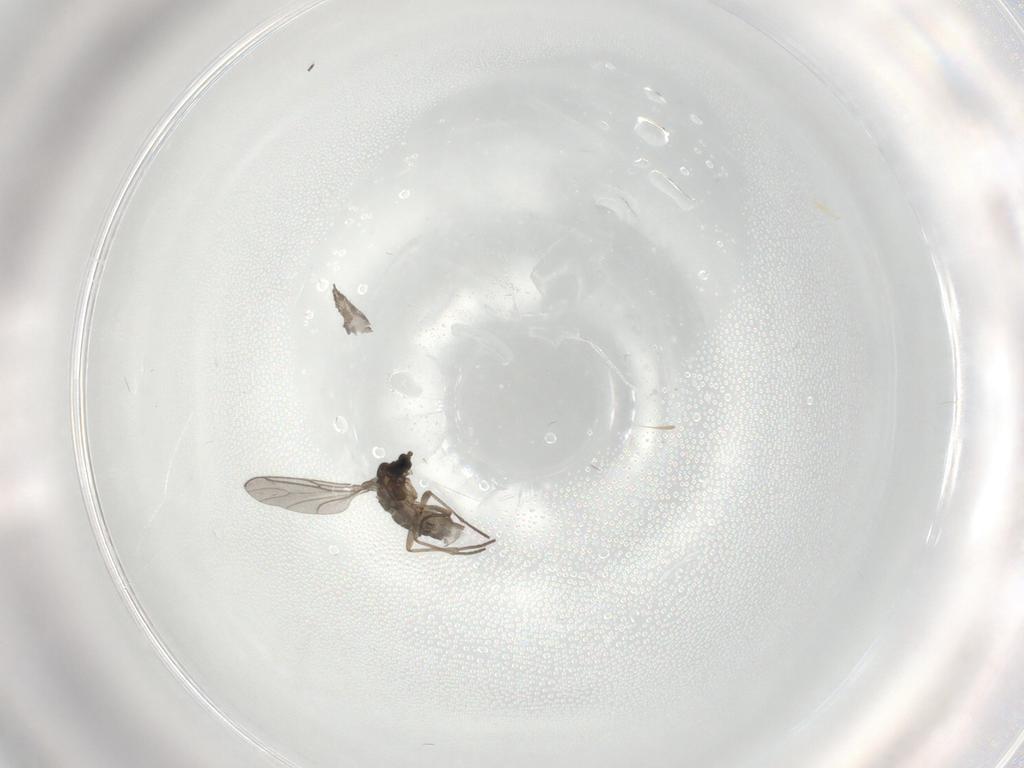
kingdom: Animalia
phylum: Arthropoda
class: Insecta
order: Diptera
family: Sciaridae
